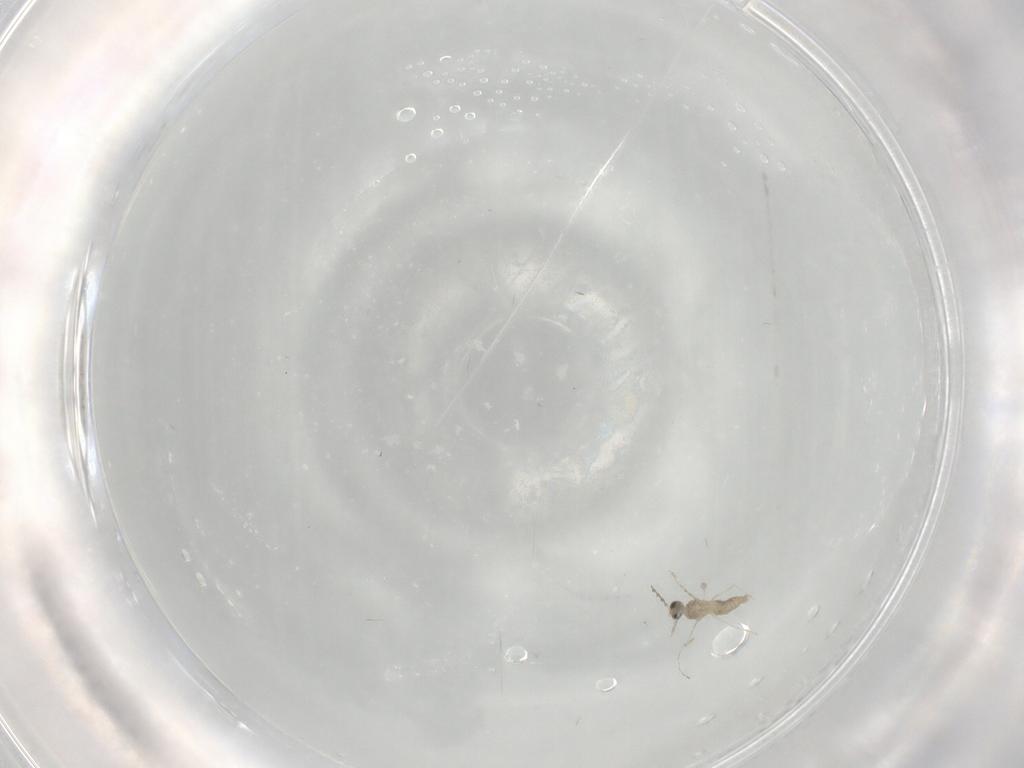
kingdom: Animalia
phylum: Arthropoda
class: Insecta
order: Diptera
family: Cecidomyiidae
